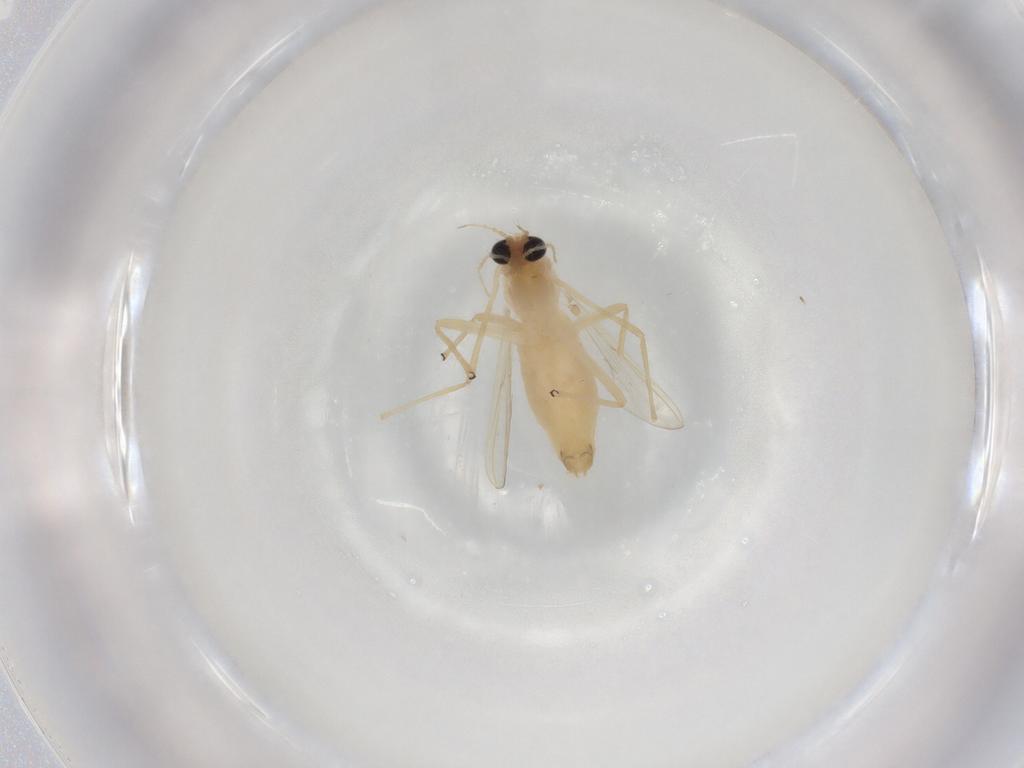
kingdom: Animalia
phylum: Arthropoda
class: Insecta
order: Diptera
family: Chironomidae
